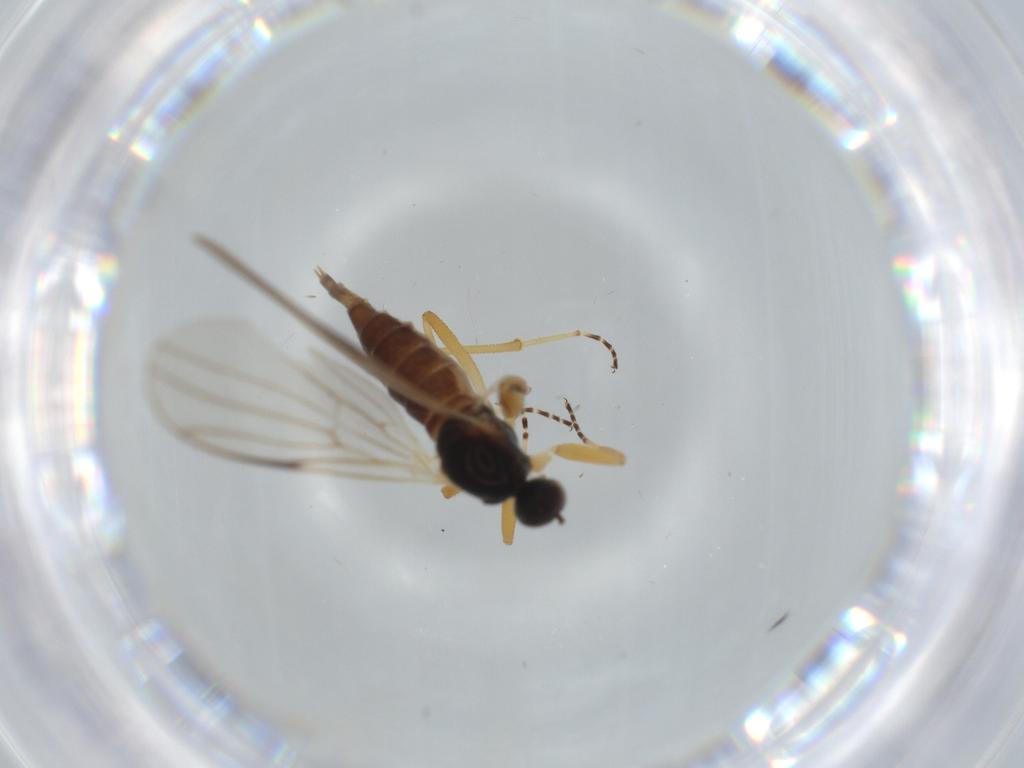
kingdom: Animalia
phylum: Arthropoda
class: Insecta
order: Diptera
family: Hybotidae
